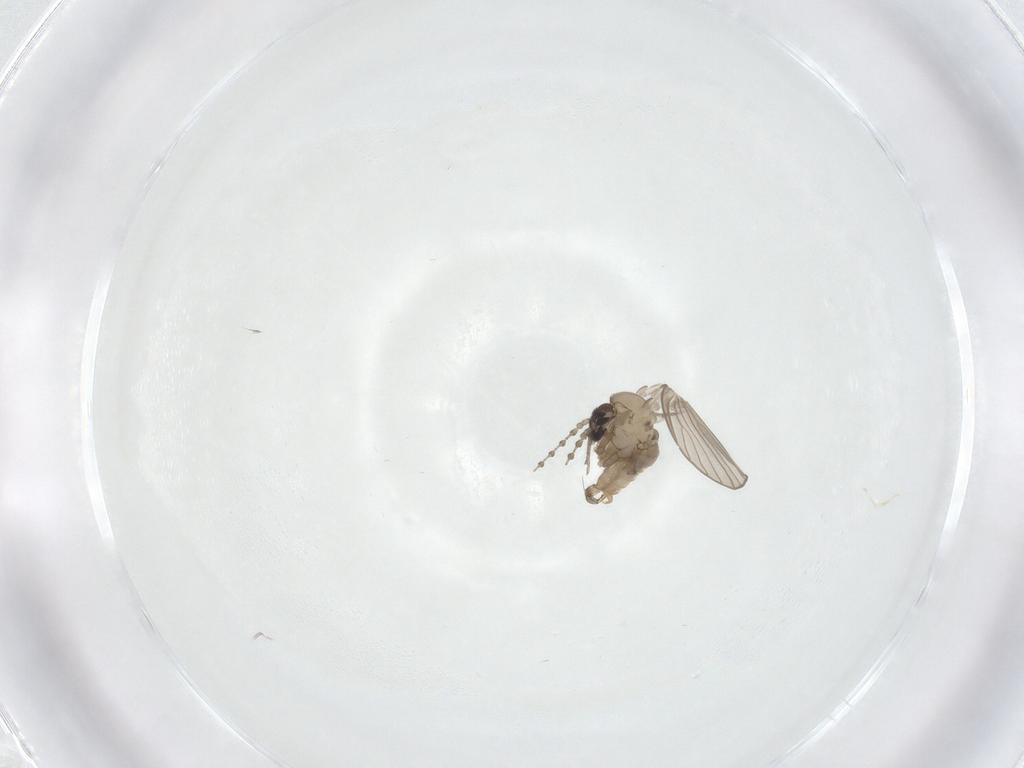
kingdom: Animalia
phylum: Arthropoda
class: Insecta
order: Diptera
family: Psychodidae
